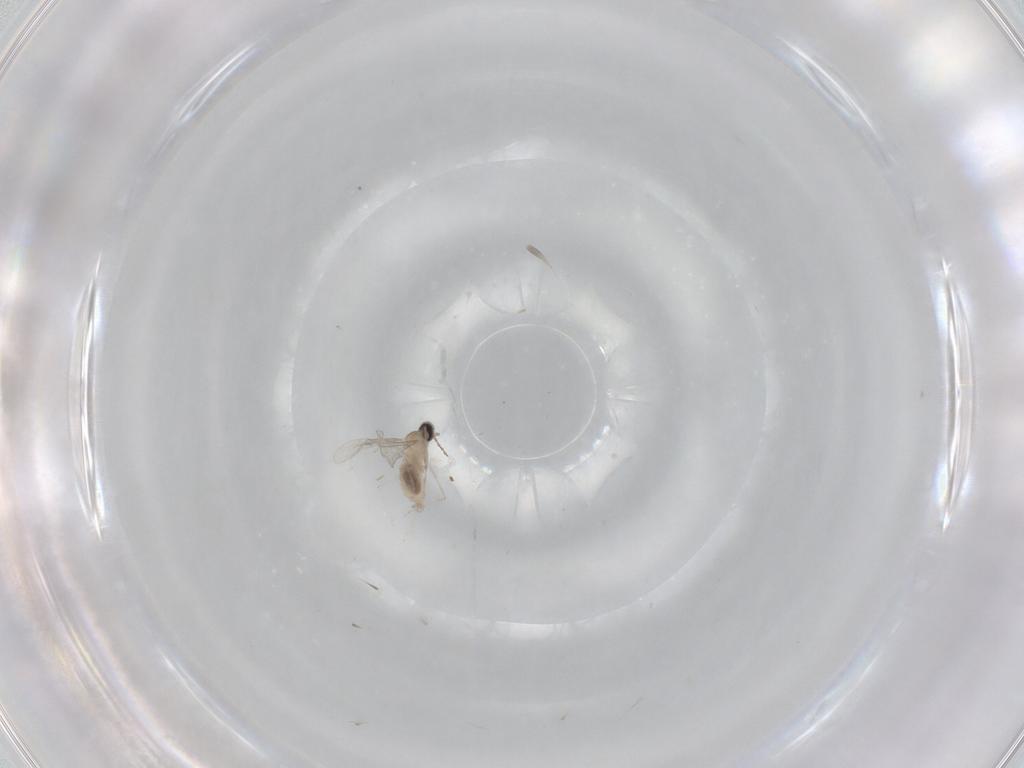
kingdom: Animalia
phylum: Arthropoda
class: Insecta
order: Diptera
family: Cecidomyiidae
